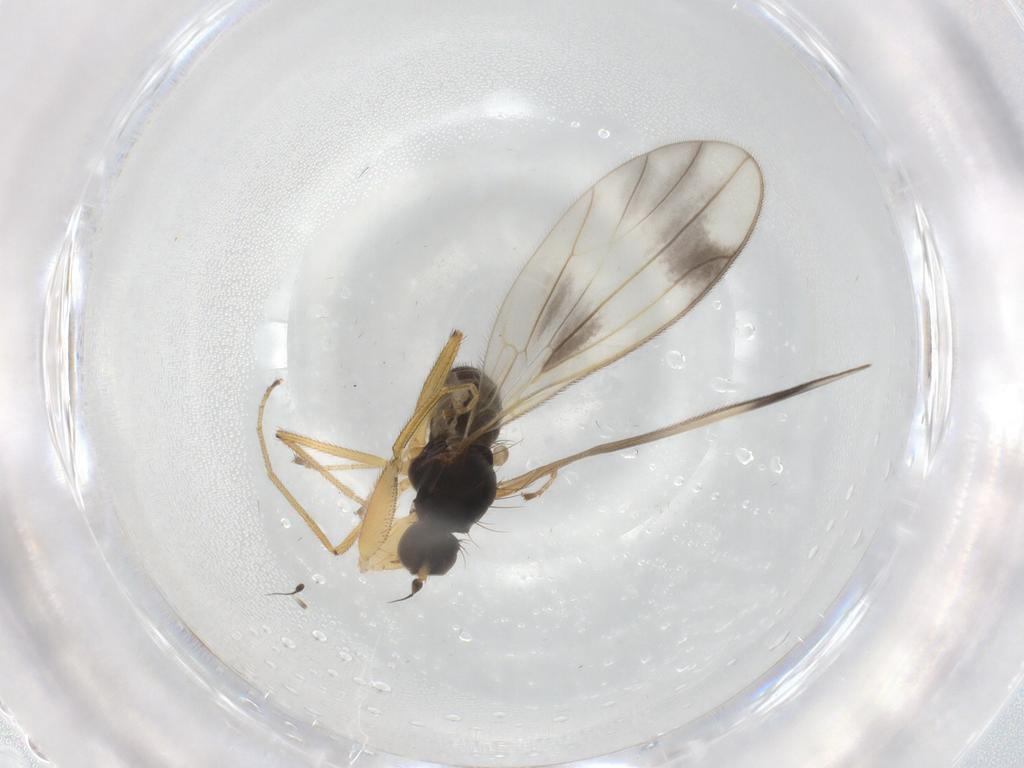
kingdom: Animalia
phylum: Arthropoda
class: Insecta
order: Diptera
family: Empididae
